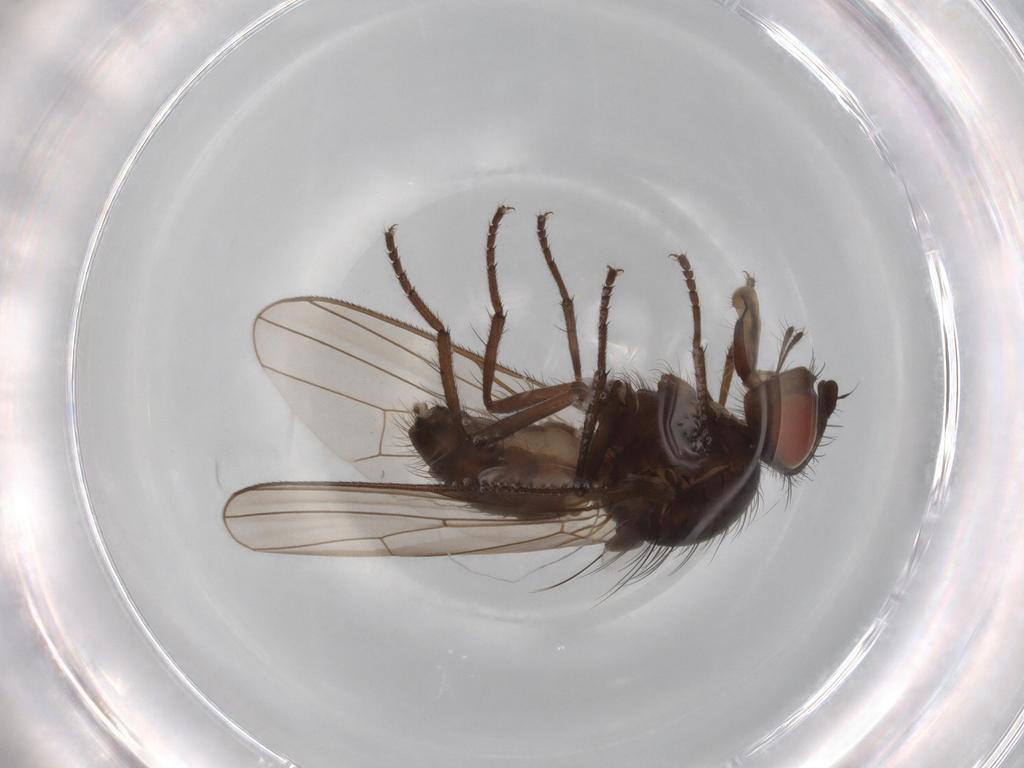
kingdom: Animalia
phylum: Arthropoda
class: Insecta
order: Diptera
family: Anthomyiidae
